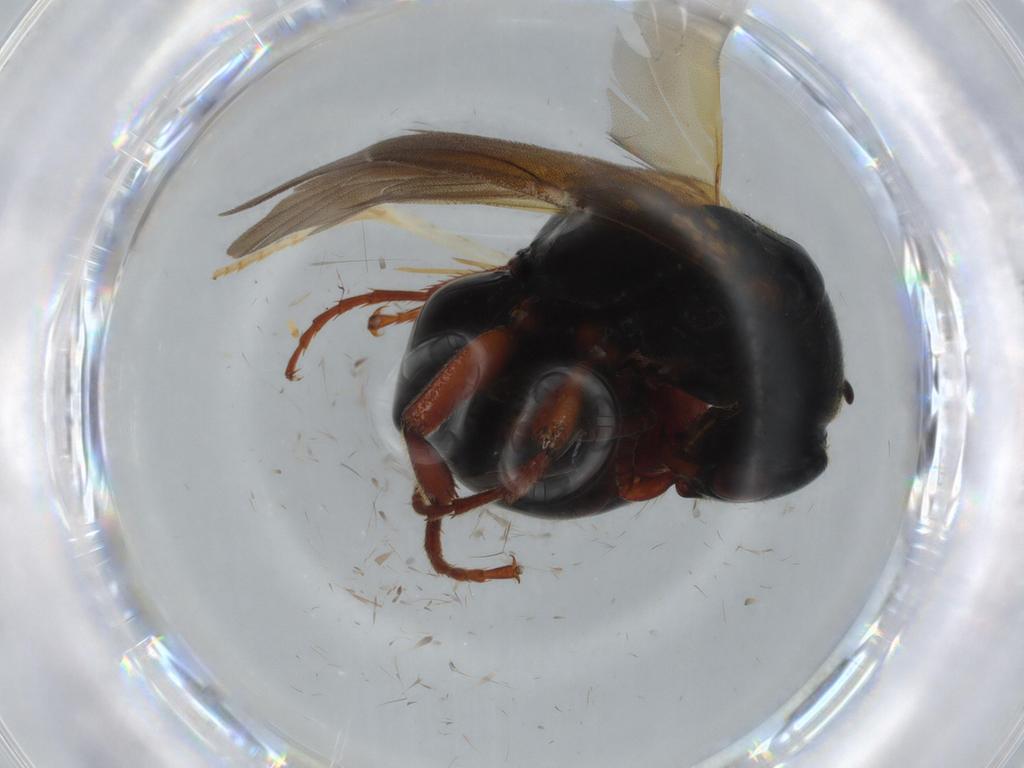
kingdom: Animalia
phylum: Arthropoda
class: Insecta
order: Hymenoptera
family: Bethylidae
